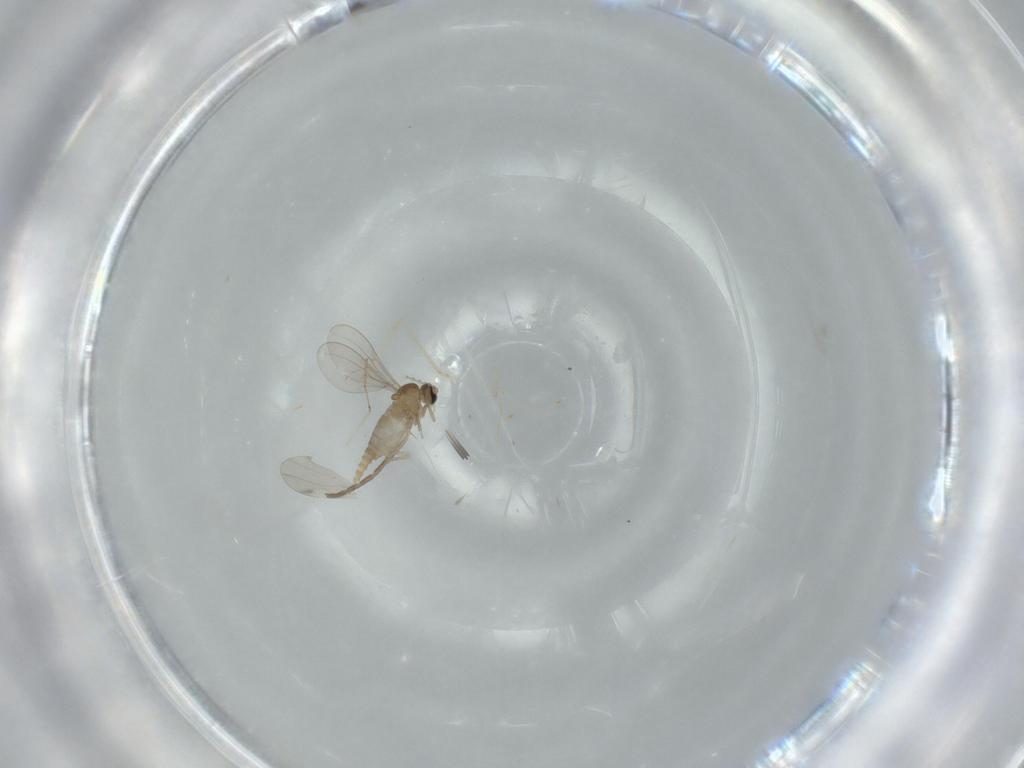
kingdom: Animalia
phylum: Arthropoda
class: Insecta
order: Diptera
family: Cecidomyiidae
